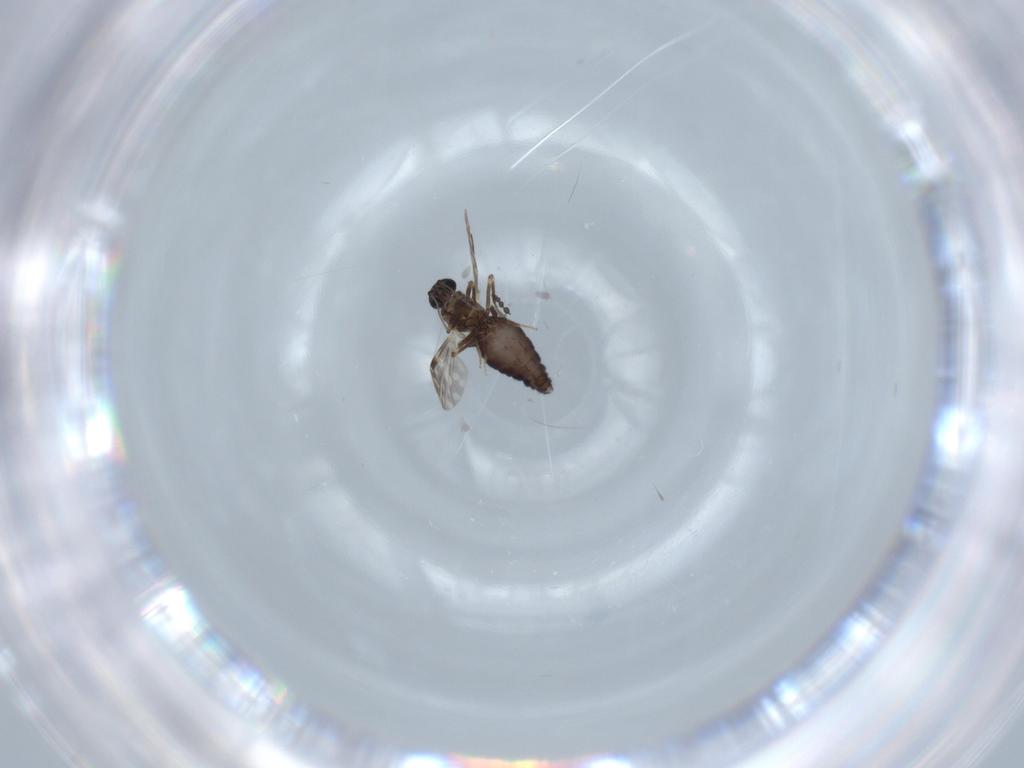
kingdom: Animalia
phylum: Arthropoda
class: Insecta
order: Diptera
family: Ceratopogonidae
